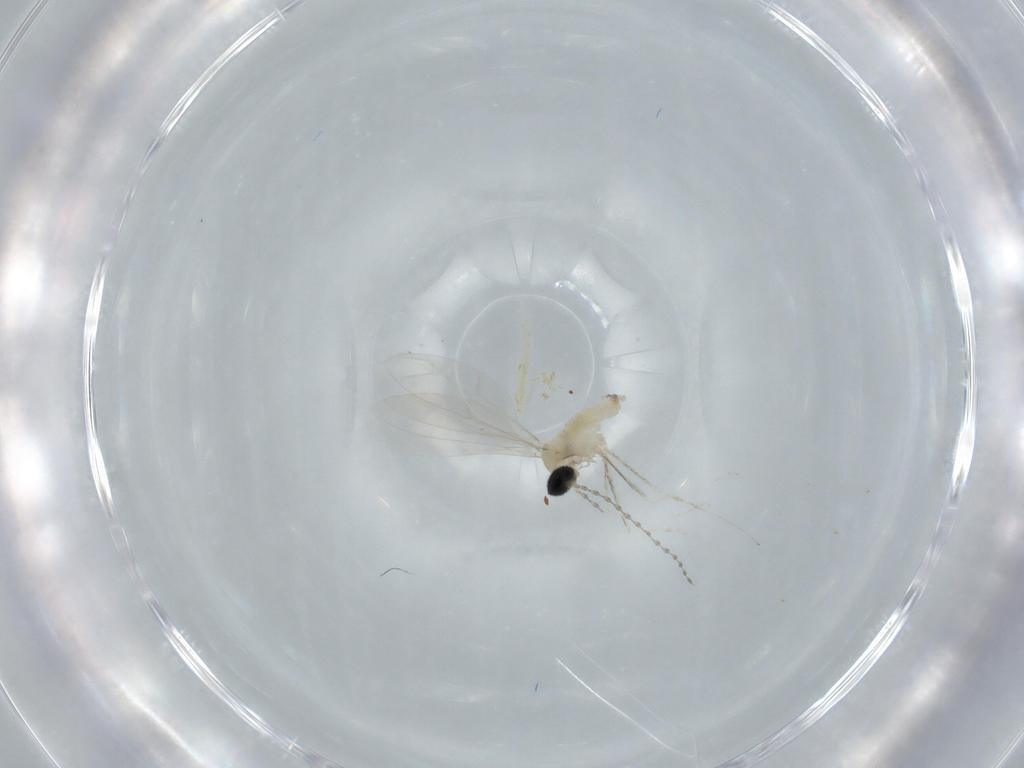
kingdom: Animalia
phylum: Arthropoda
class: Insecta
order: Diptera
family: Cecidomyiidae
